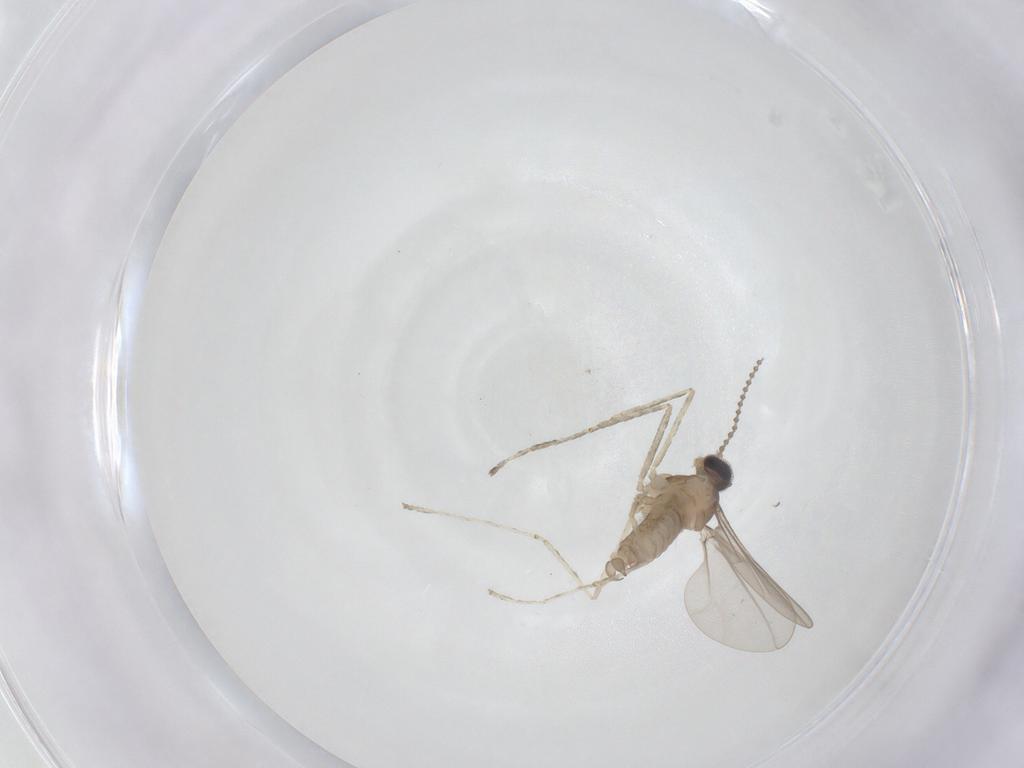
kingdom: Animalia
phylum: Arthropoda
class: Insecta
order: Diptera
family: Cecidomyiidae
